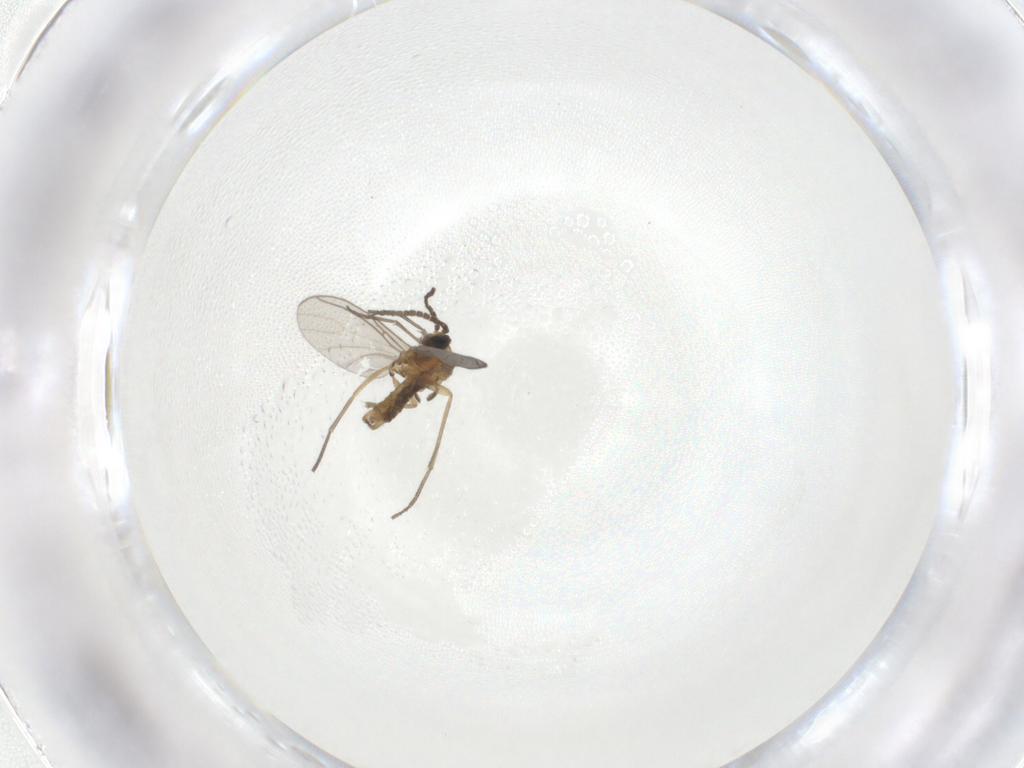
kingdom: Animalia
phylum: Arthropoda
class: Insecta
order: Diptera
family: Sciaridae
